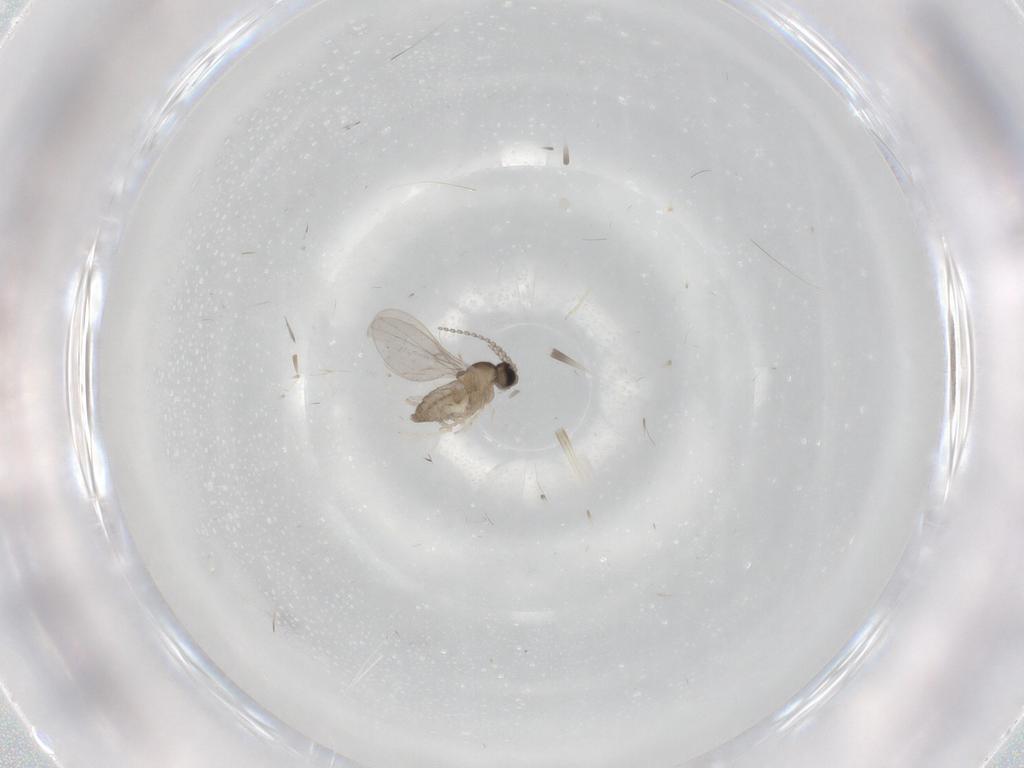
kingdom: Animalia
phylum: Arthropoda
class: Insecta
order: Diptera
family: Cecidomyiidae
